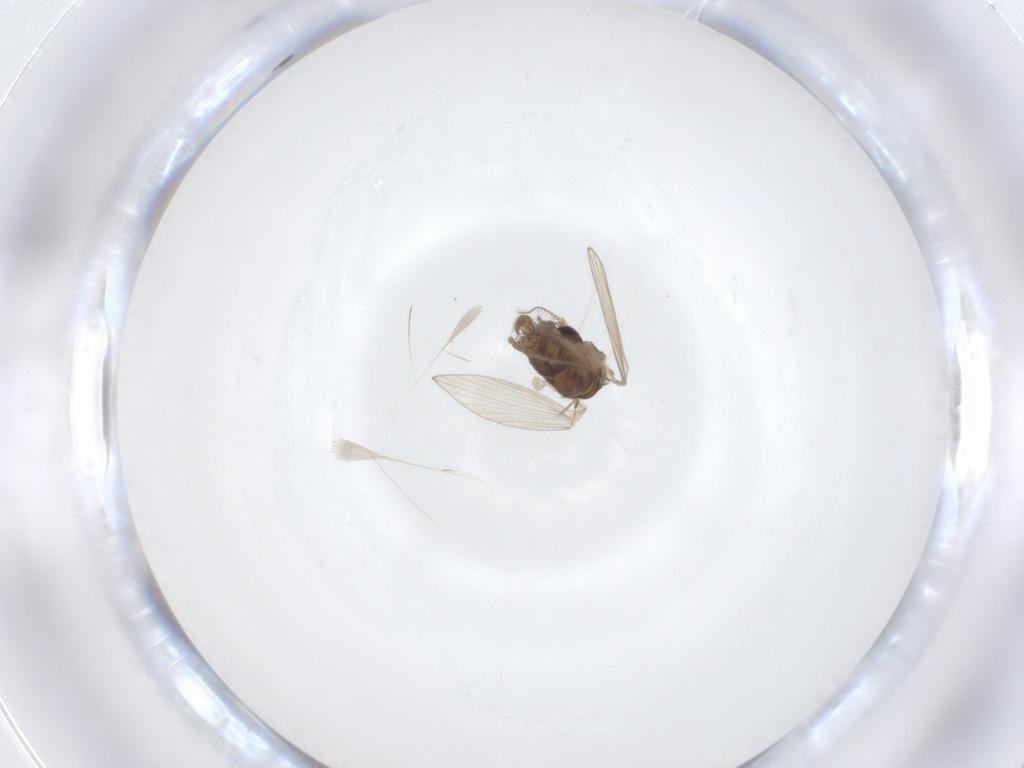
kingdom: Animalia
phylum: Arthropoda
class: Insecta
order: Diptera
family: Psychodidae
